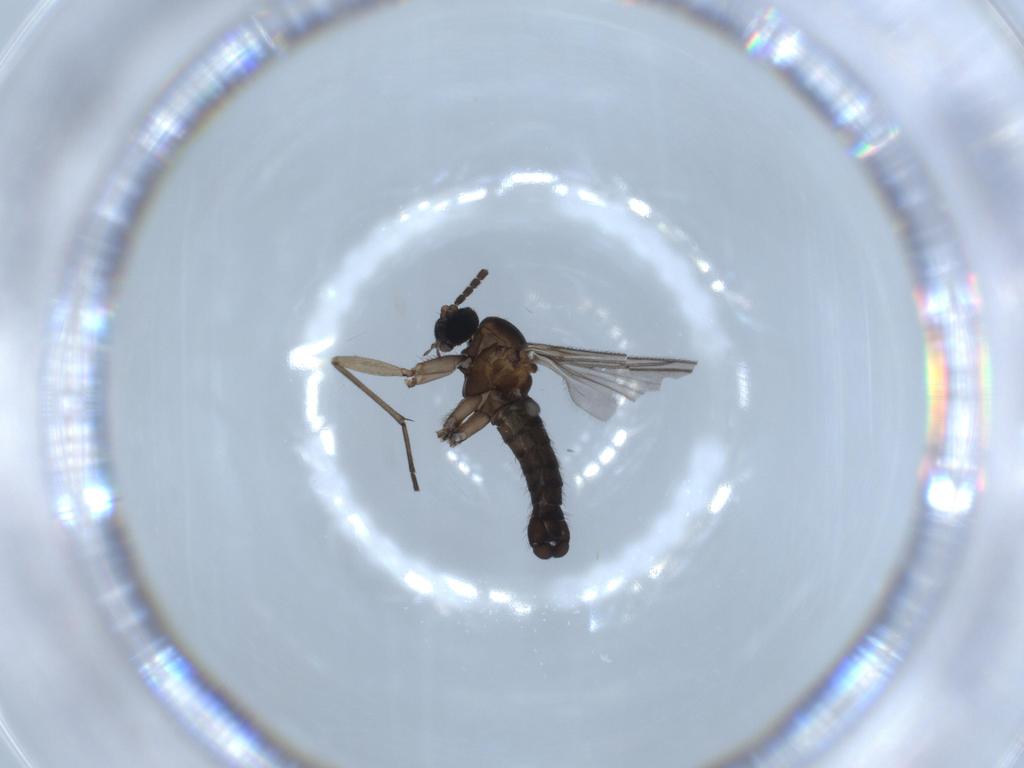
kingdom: Animalia
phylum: Arthropoda
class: Insecta
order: Diptera
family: Sciaridae
